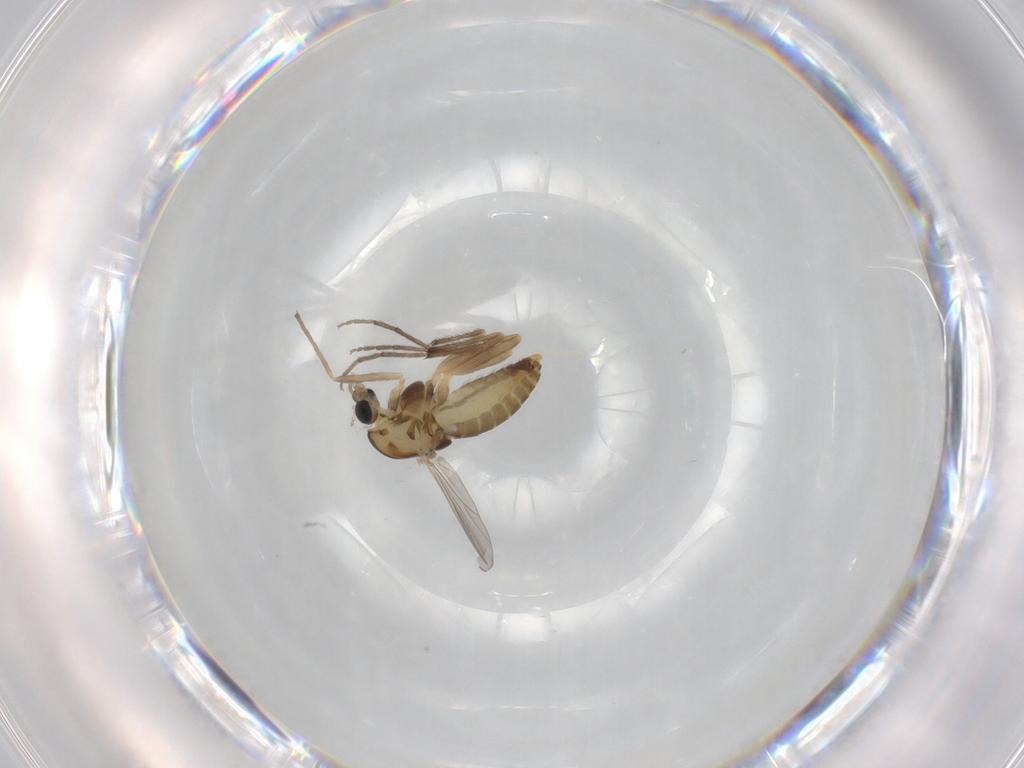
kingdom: Animalia
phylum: Arthropoda
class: Insecta
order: Diptera
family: Chironomidae
